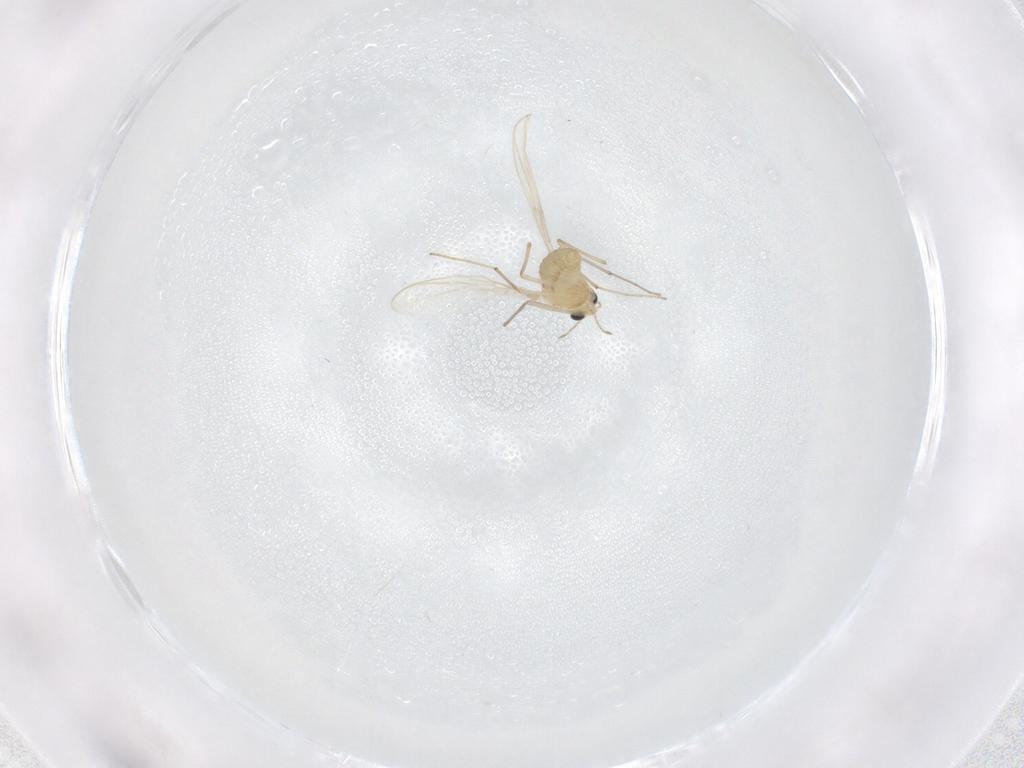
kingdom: Animalia
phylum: Arthropoda
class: Insecta
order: Diptera
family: Chironomidae
